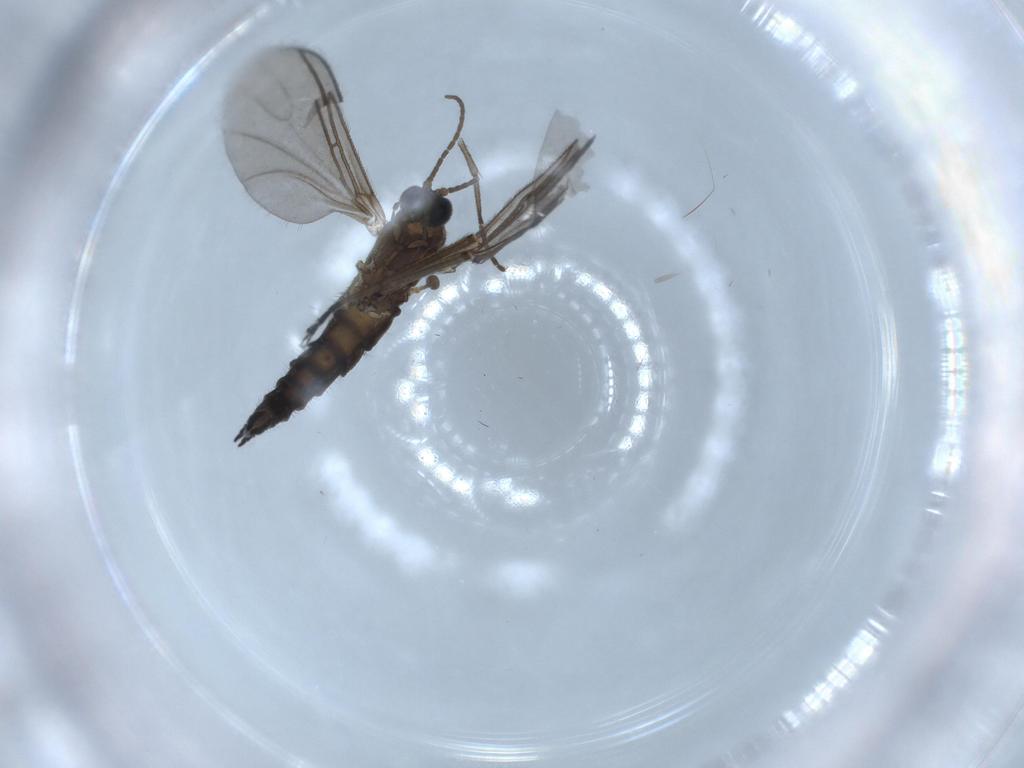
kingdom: Animalia
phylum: Arthropoda
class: Insecta
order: Diptera
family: Sciaridae
